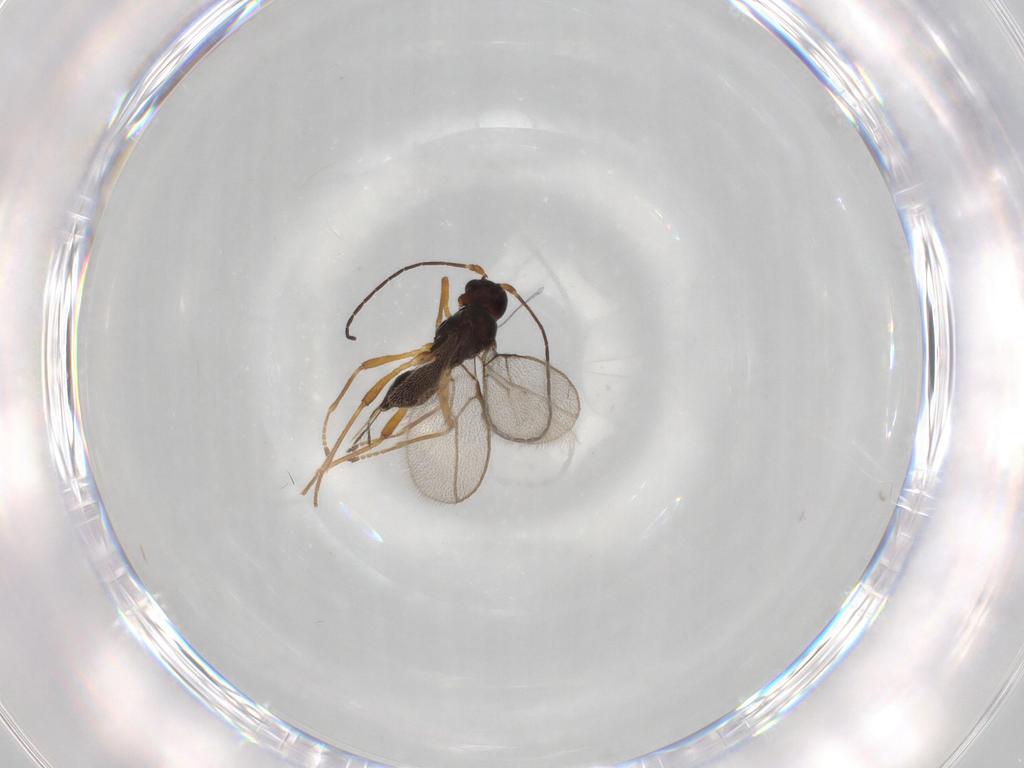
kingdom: Animalia
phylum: Arthropoda
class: Insecta
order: Hymenoptera
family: Braconidae
